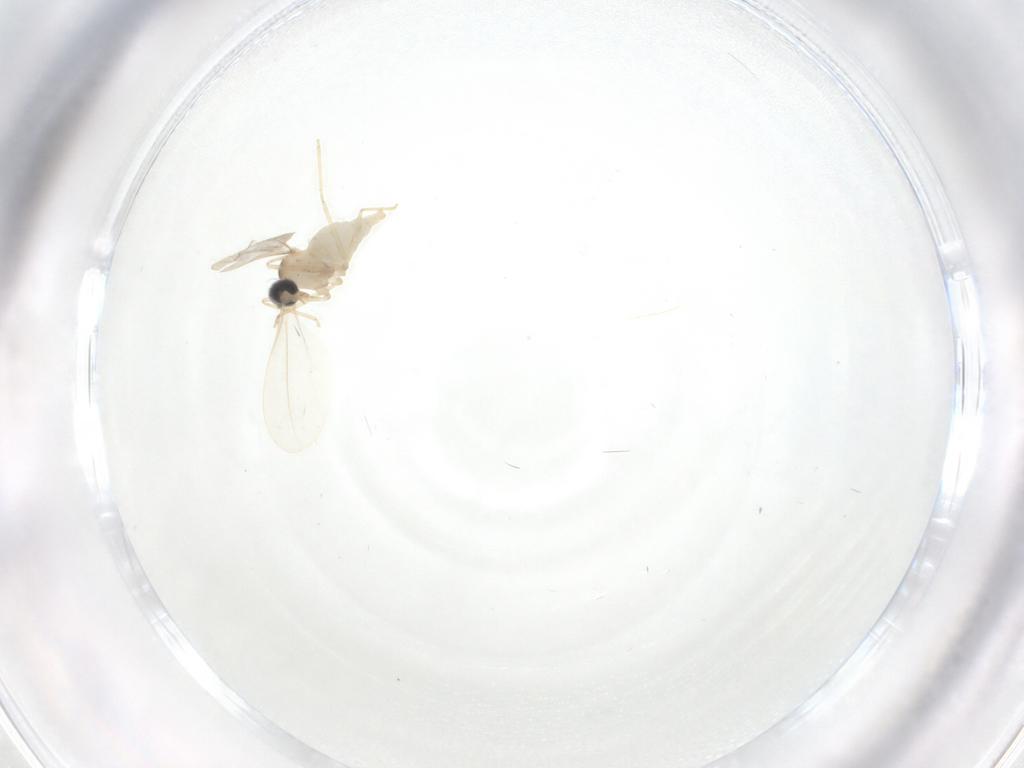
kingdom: Animalia
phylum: Arthropoda
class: Insecta
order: Diptera
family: Cecidomyiidae
